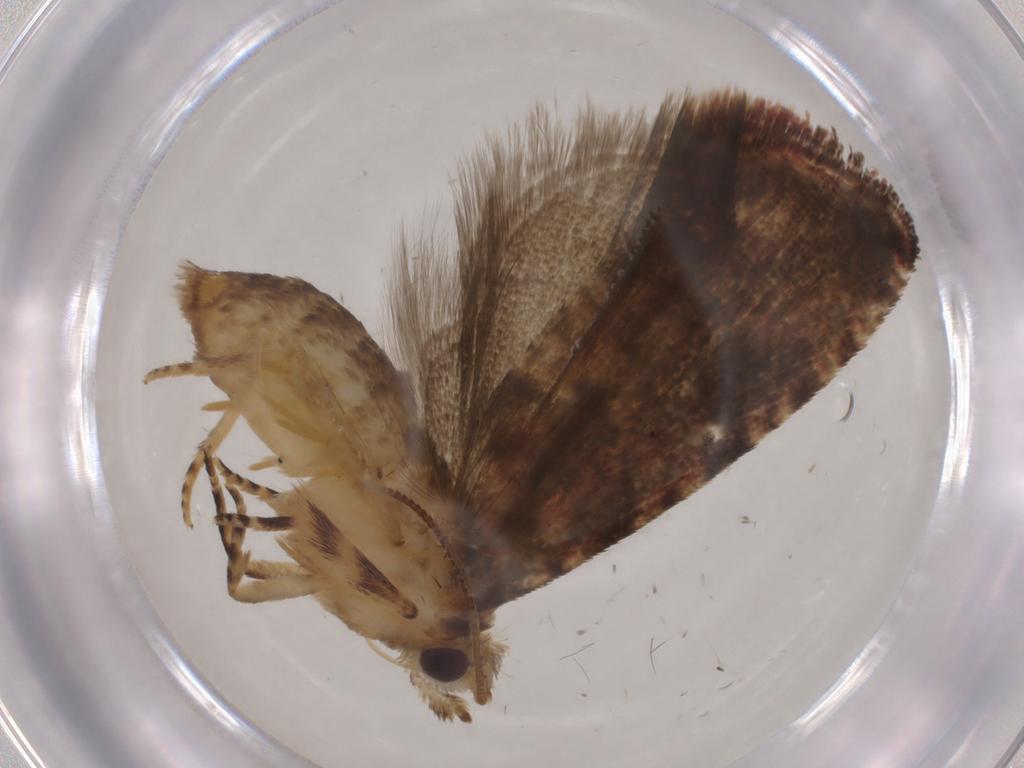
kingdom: Animalia
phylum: Arthropoda
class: Insecta
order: Lepidoptera
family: Tortricidae
